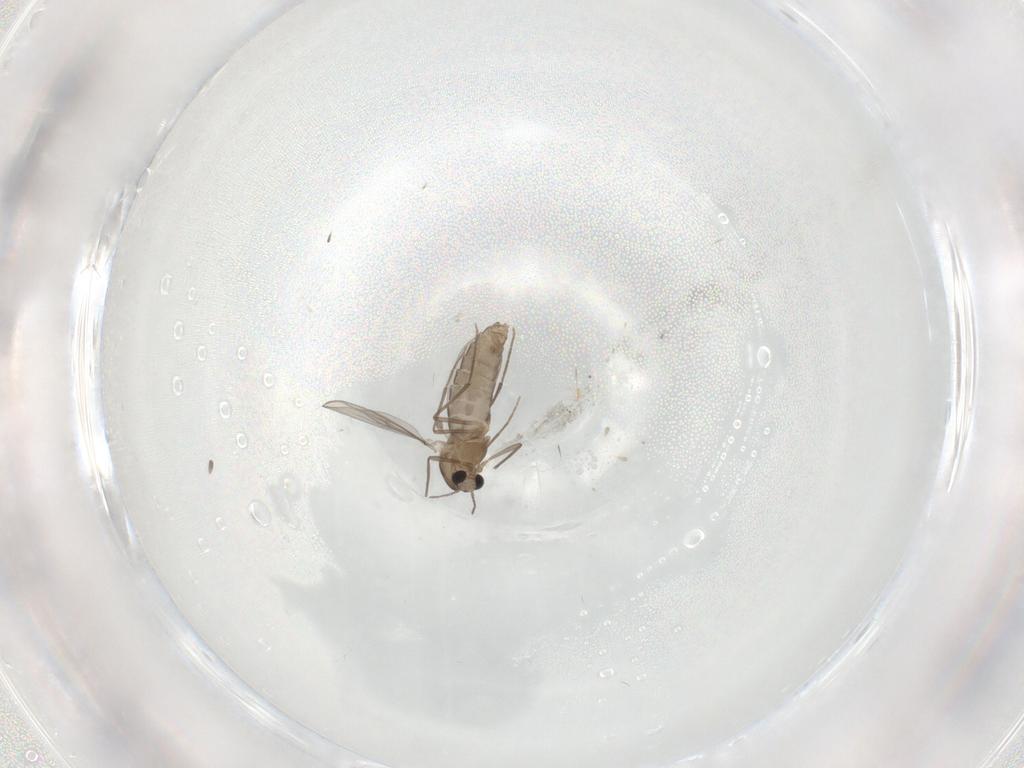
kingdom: Animalia
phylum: Arthropoda
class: Insecta
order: Diptera
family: Chironomidae
